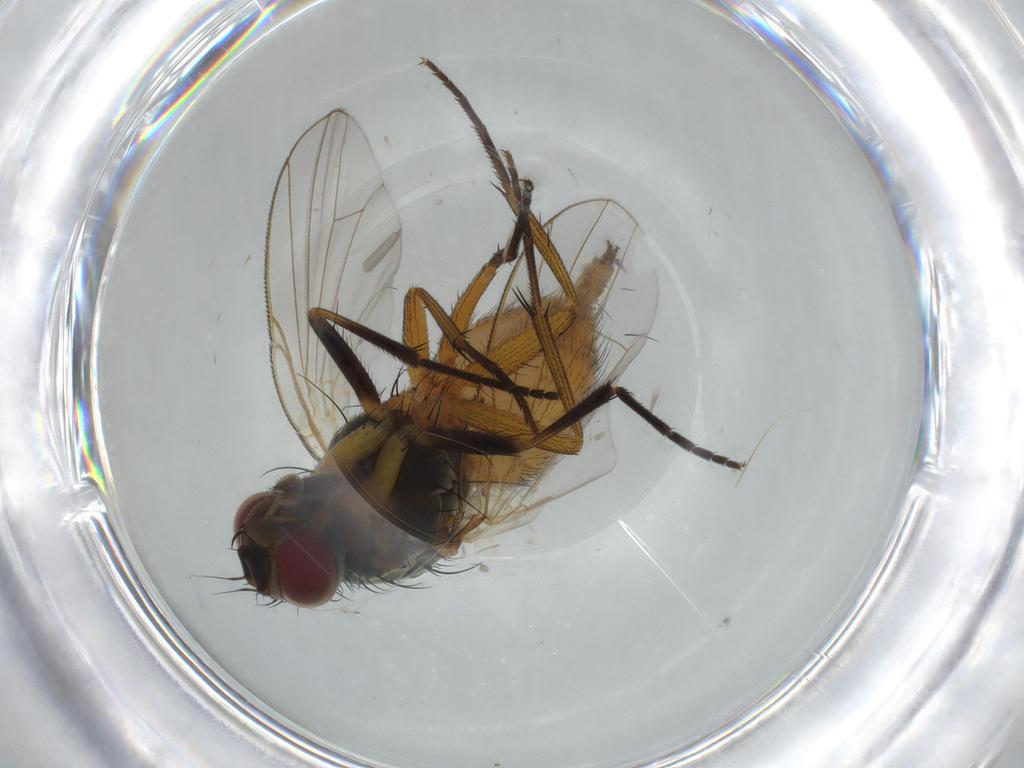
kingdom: Animalia
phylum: Arthropoda
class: Insecta
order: Diptera
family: Muscidae
